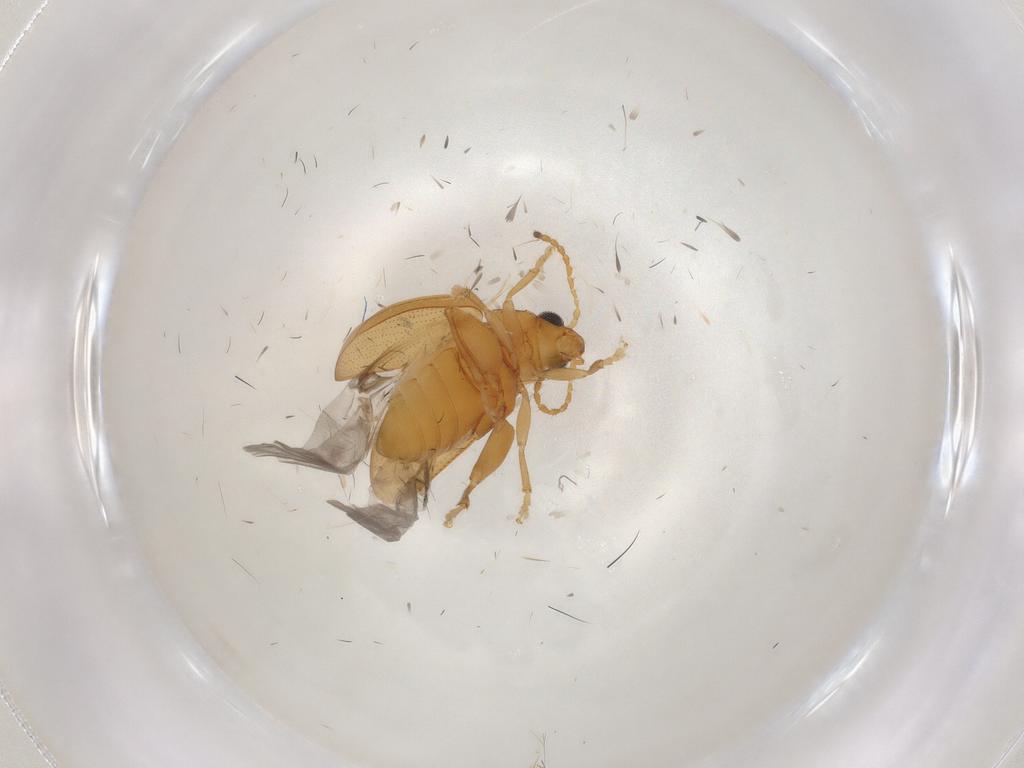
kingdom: Animalia
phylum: Arthropoda
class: Insecta
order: Coleoptera
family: Chrysomelidae
